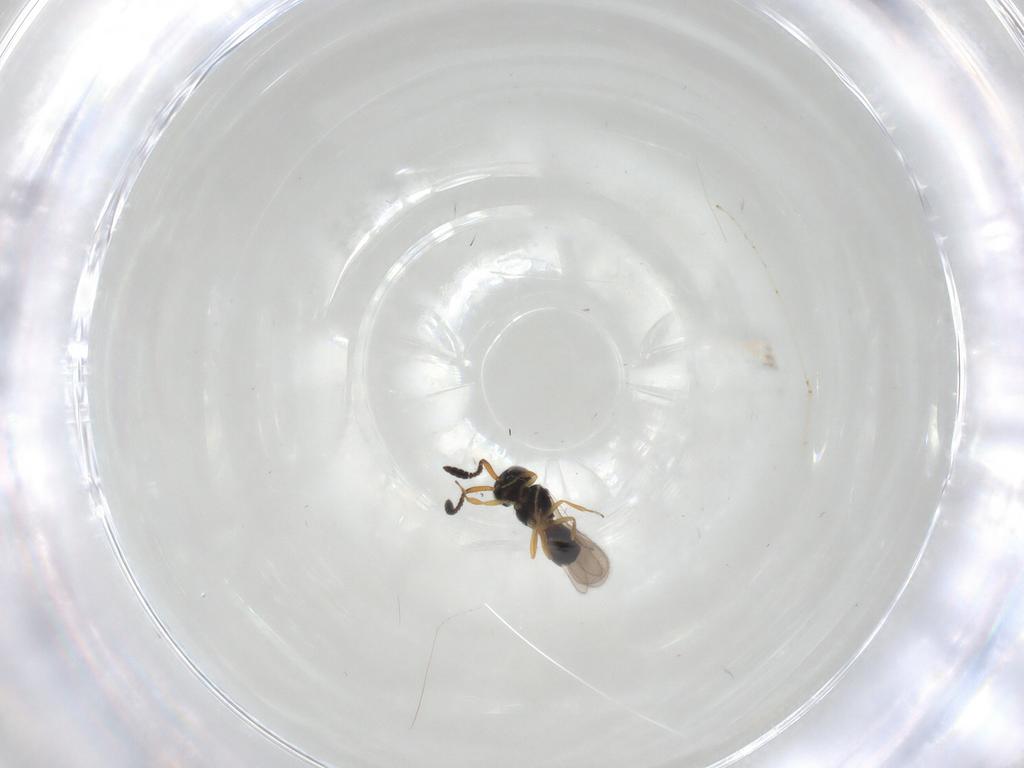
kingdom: Animalia
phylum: Arthropoda
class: Insecta
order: Hymenoptera
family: Scelionidae
